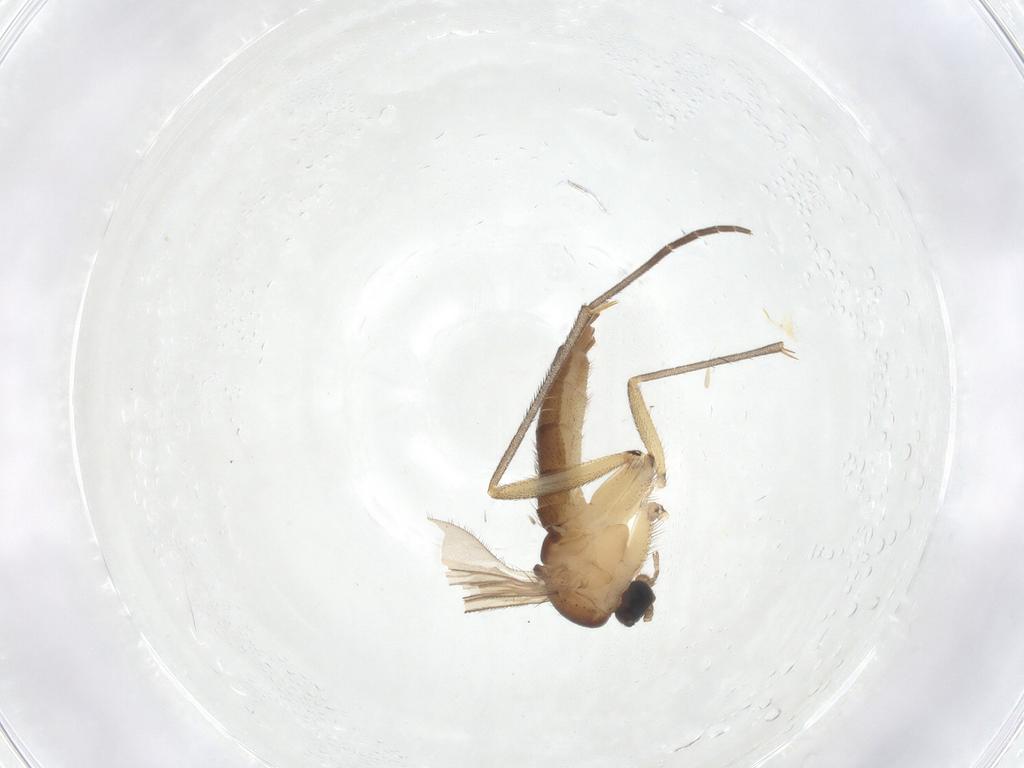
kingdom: Animalia
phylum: Arthropoda
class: Insecta
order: Diptera
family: Sciaridae
